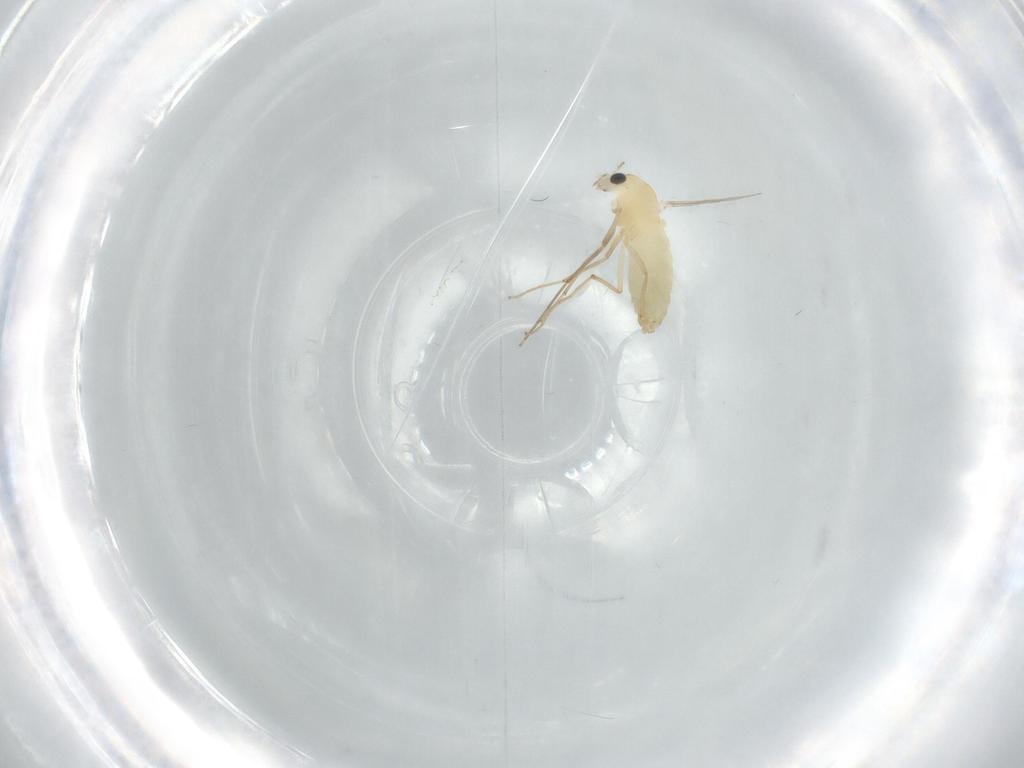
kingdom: Animalia
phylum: Arthropoda
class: Insecta
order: Diptera
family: Chironomidae
